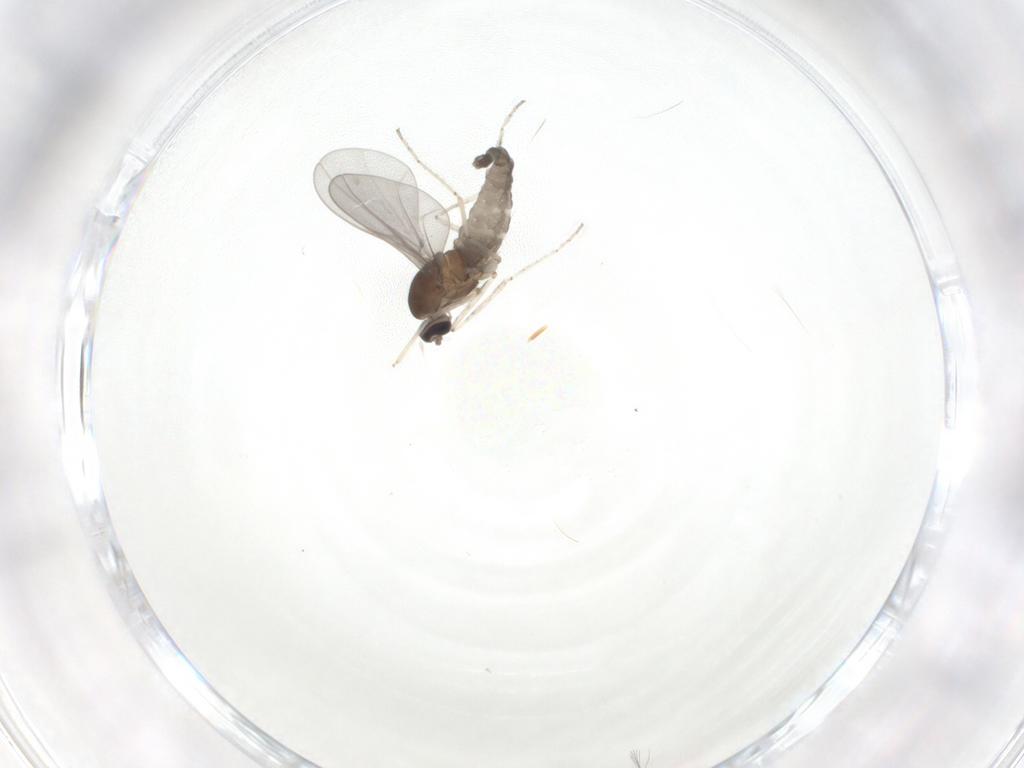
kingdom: Animalia
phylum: Arthropoda
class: Insecta
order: Diptera
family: Cecidomyiidae
